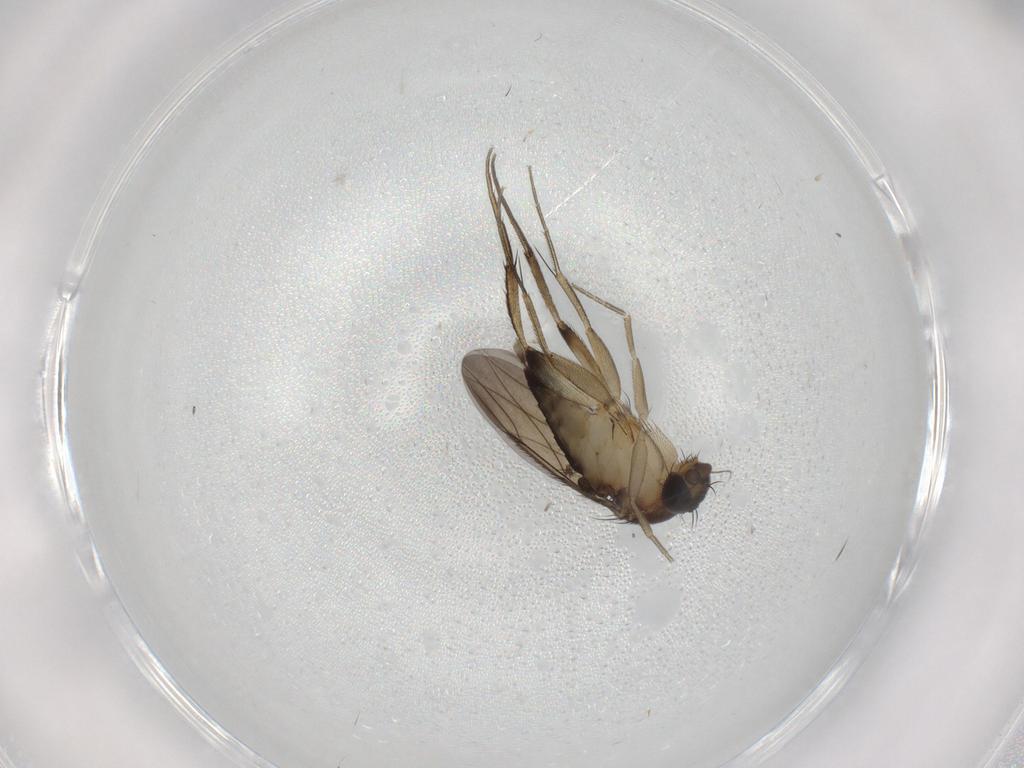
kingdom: Animalia
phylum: Arthropoda
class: Insecta
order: Diptera
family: Phoridae
